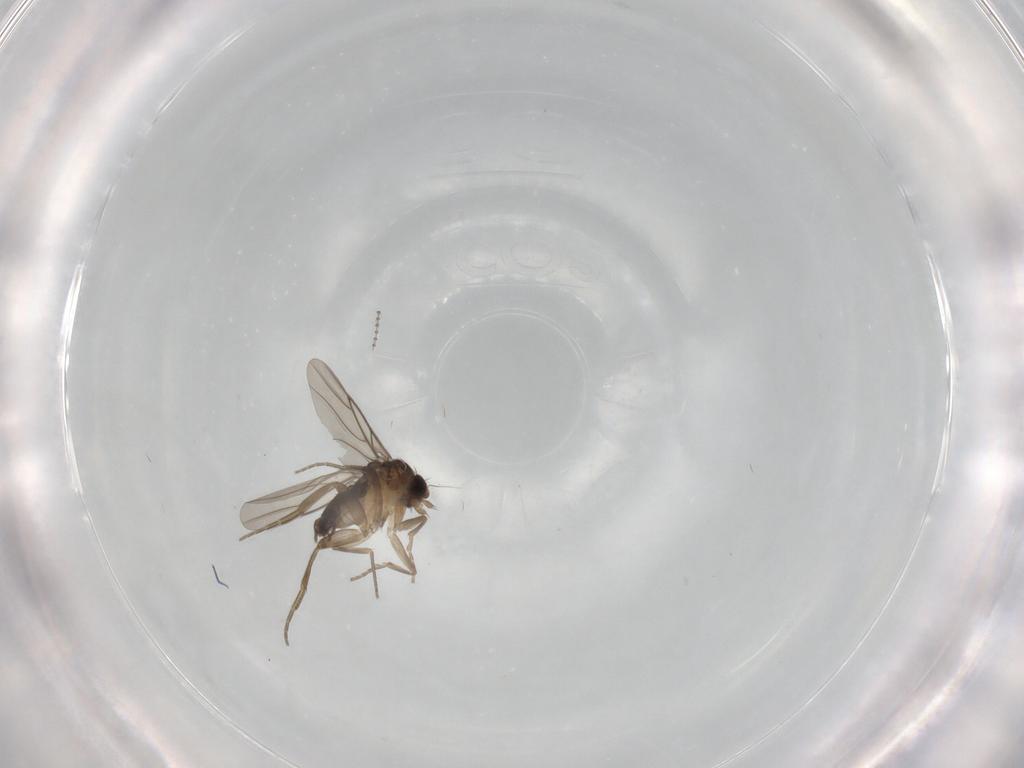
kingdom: Animalia
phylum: Arthropoda
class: Insecta
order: Diptera
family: Phoridae
